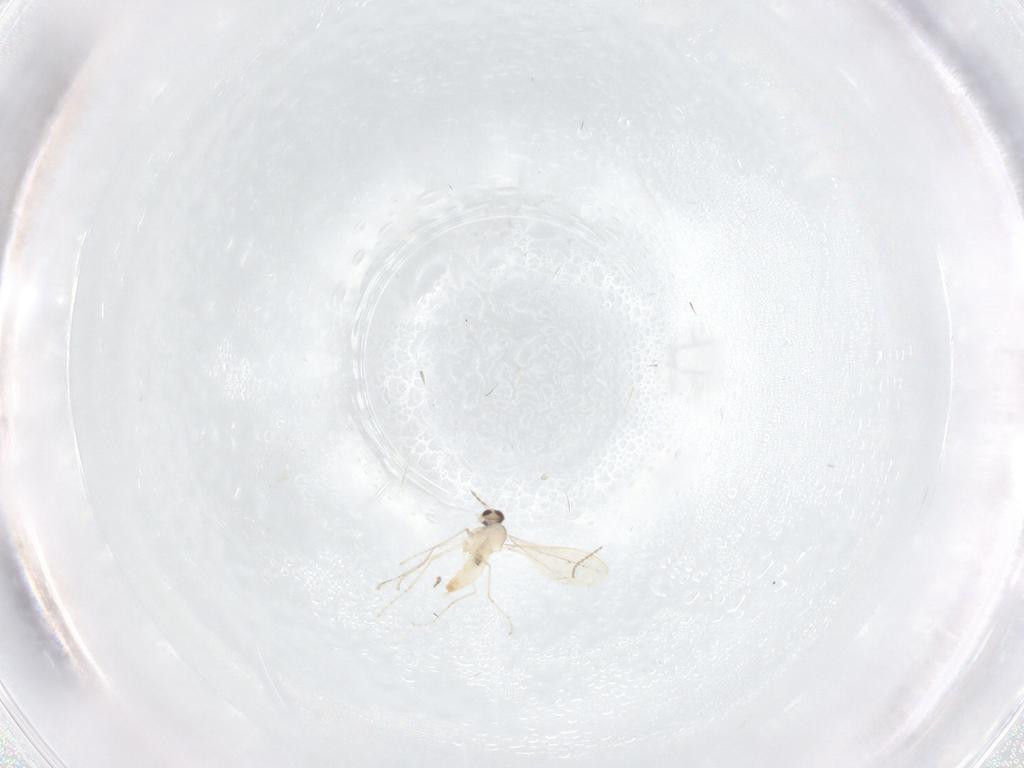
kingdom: Animalia
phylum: Arthropoda
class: Insecta
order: Diptera
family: Cecidomyiidae
